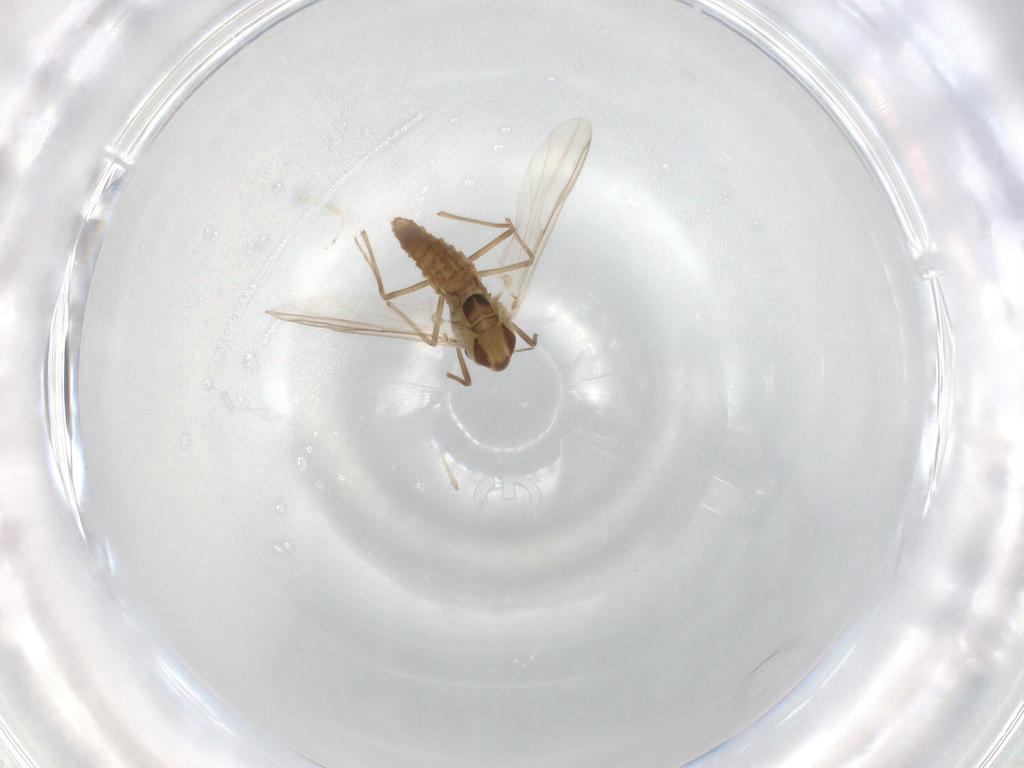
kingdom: Animalia
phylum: Arthropoda
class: Insecta
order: Diptera
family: Chironomidae
